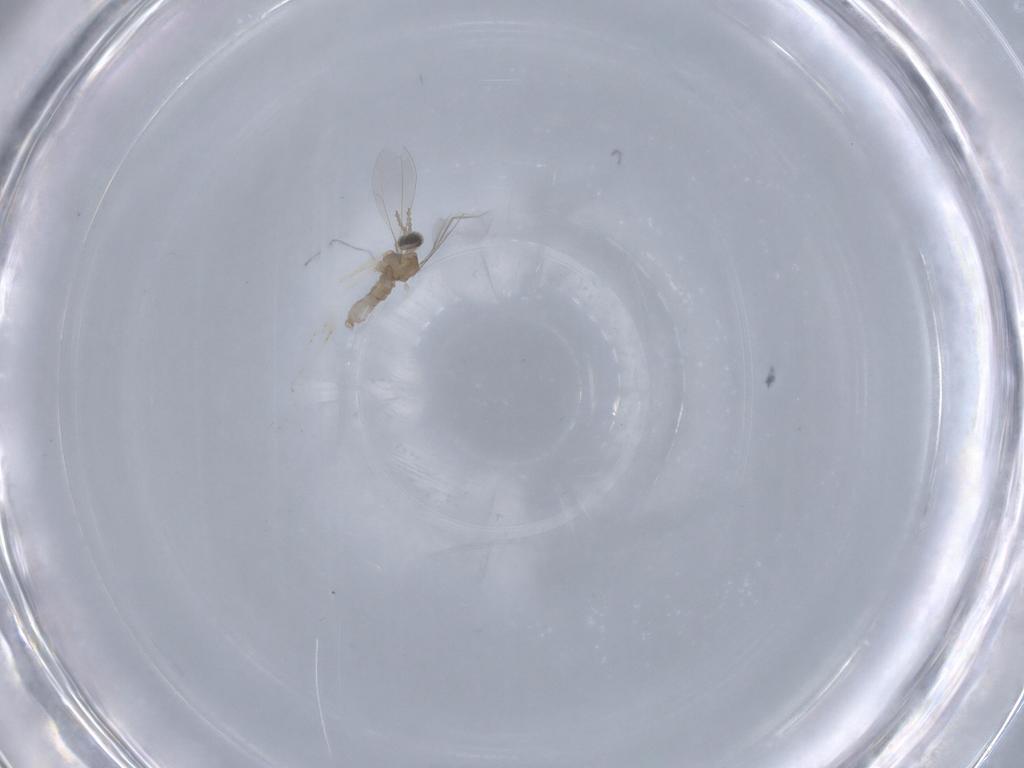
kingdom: Animalia
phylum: Arthropoda
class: Insecta
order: Diptera
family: Cecidomyiidae
